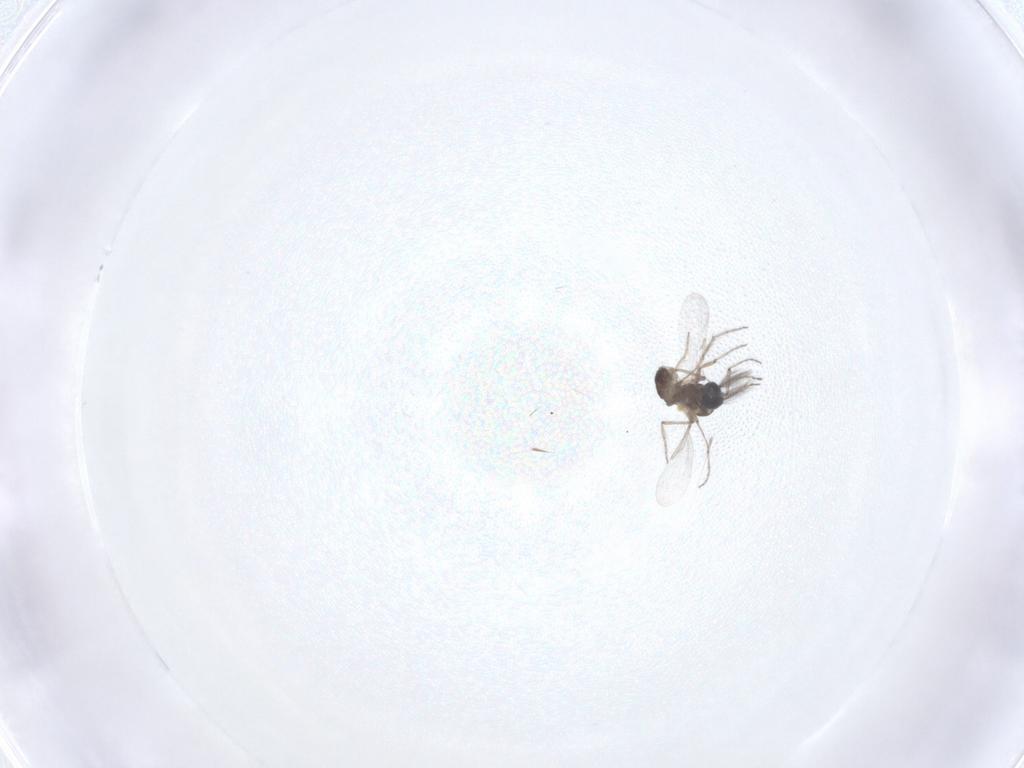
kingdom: Animalia
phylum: Arthropoda
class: Insecta
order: Diptera
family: Ceratopogonidae
